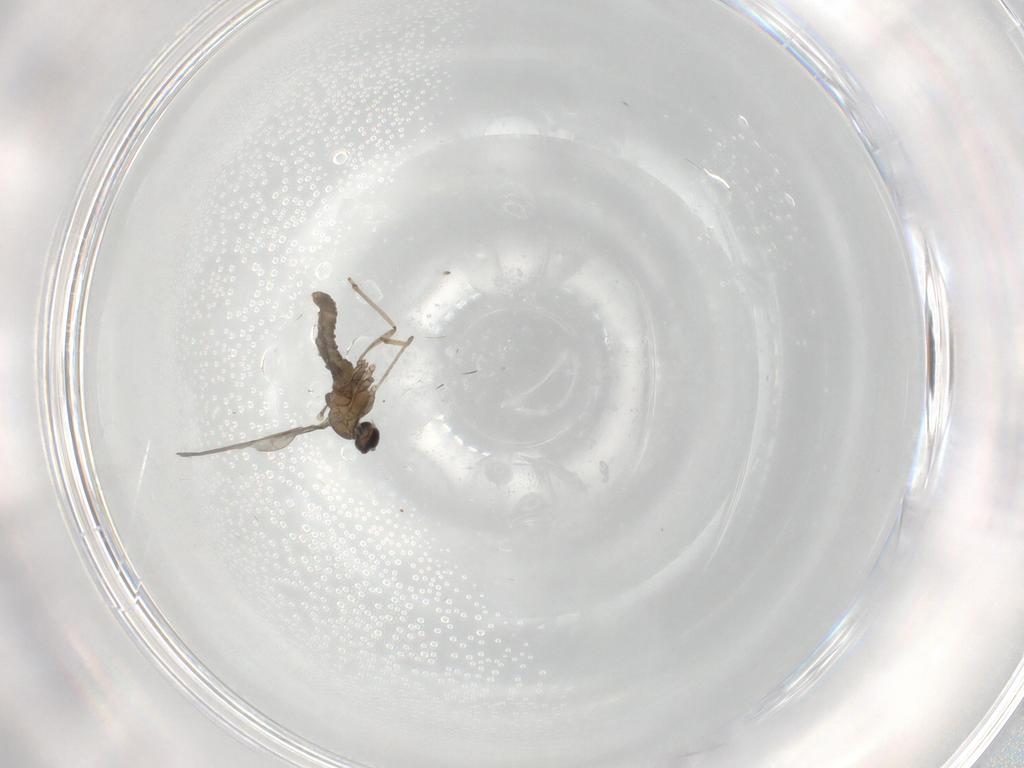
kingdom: Animalia
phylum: Arthropoda
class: Insecta
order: Diptera
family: Cecidomyiidae
